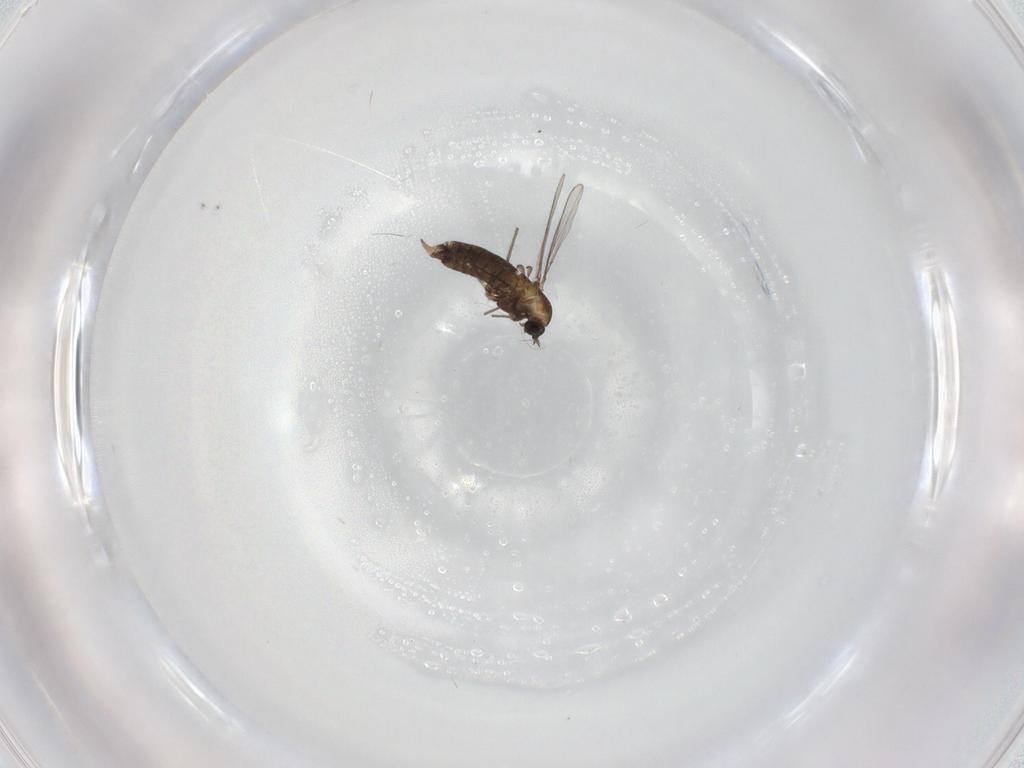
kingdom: Animalia
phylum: Arthropoda
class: Insecta
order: Diptera
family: Chironomidae
